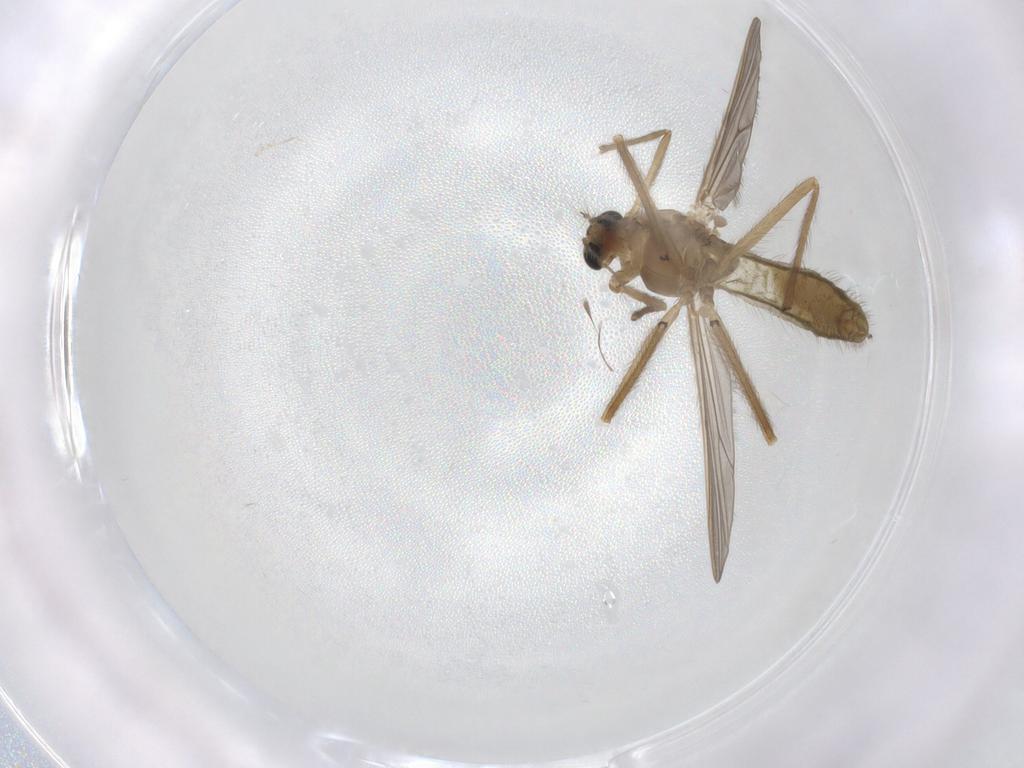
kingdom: Animalia
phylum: Arthropoda
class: Insecta
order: Diptera
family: Chironomidae
